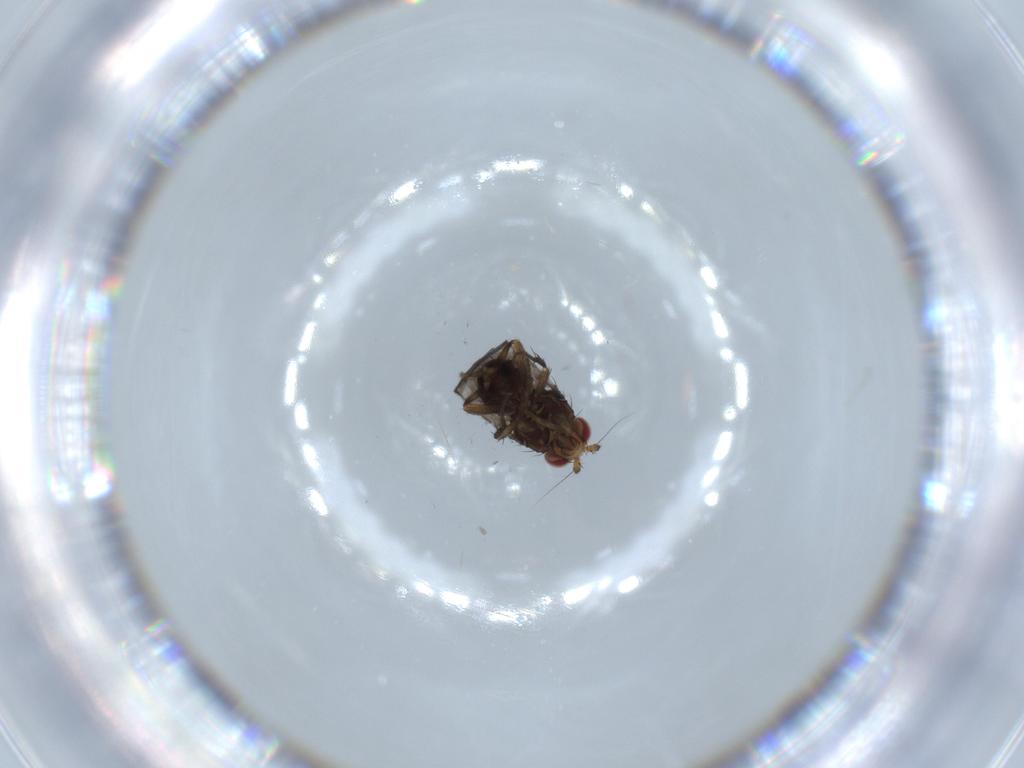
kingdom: Animalia
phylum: Arthropoda
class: Insecta
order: Diptera
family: Sphaeroceridae
